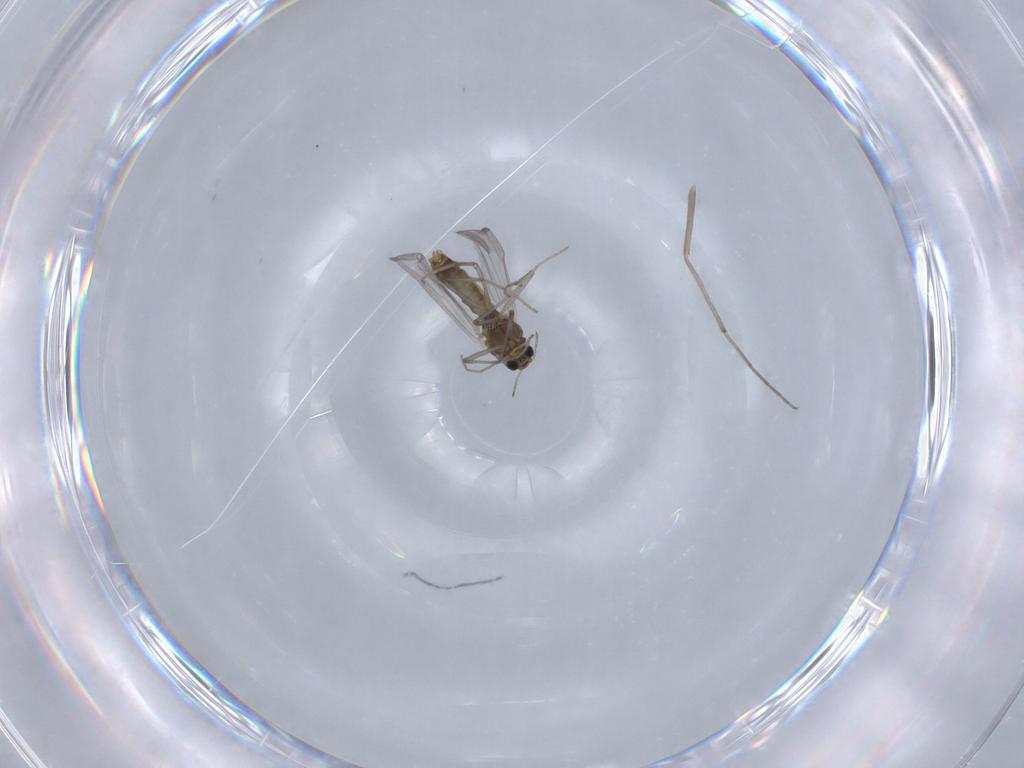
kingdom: Animalia
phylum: Arthropoda
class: Insecta
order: Diptera
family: Chironomidae
